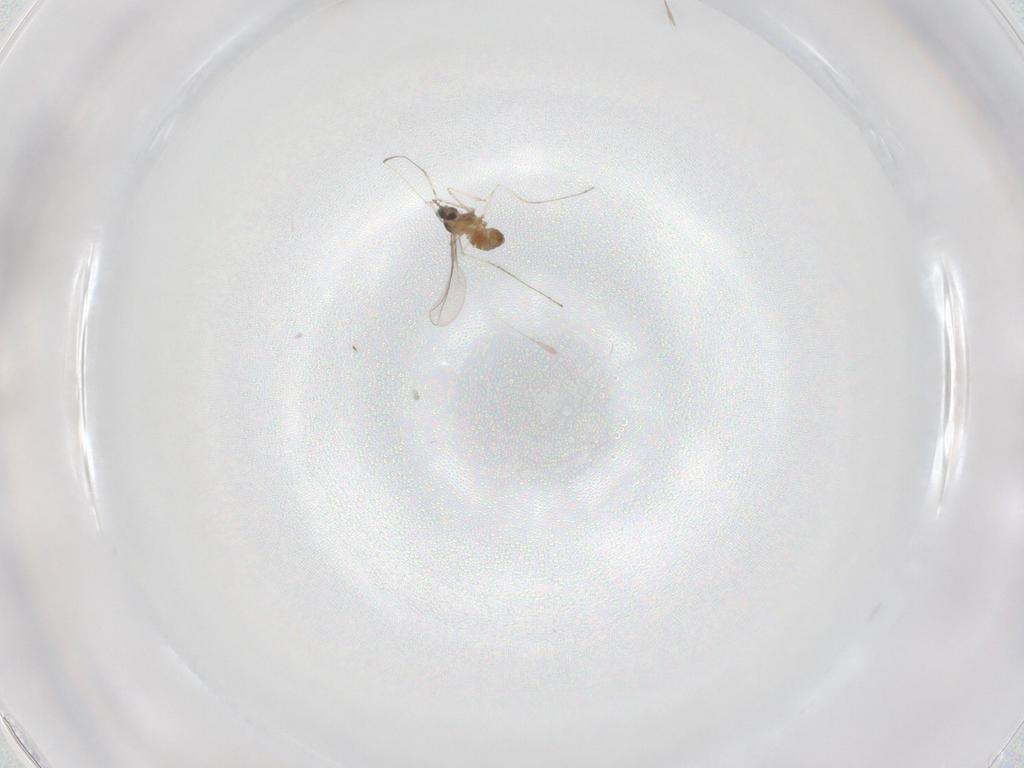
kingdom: Animalia
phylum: Arthropoda
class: Insecta
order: Diptera
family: Cecidomyiidae
